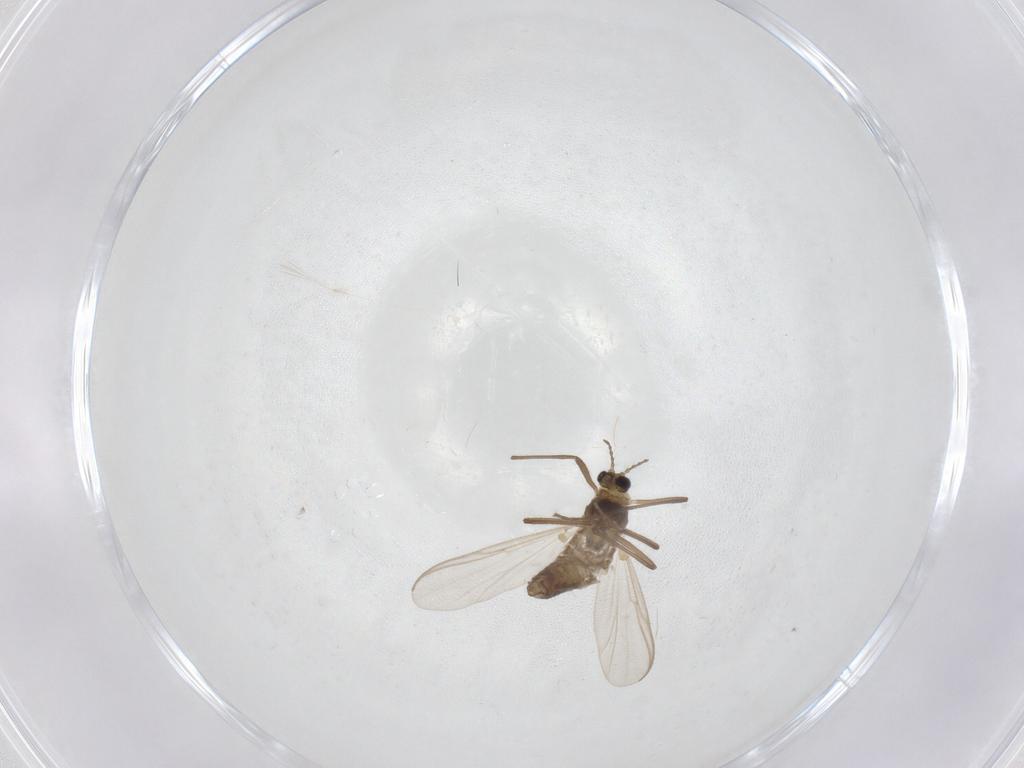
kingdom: Animalia
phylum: Arthropoda
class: Insecta
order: Diptera
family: Chironomidae
